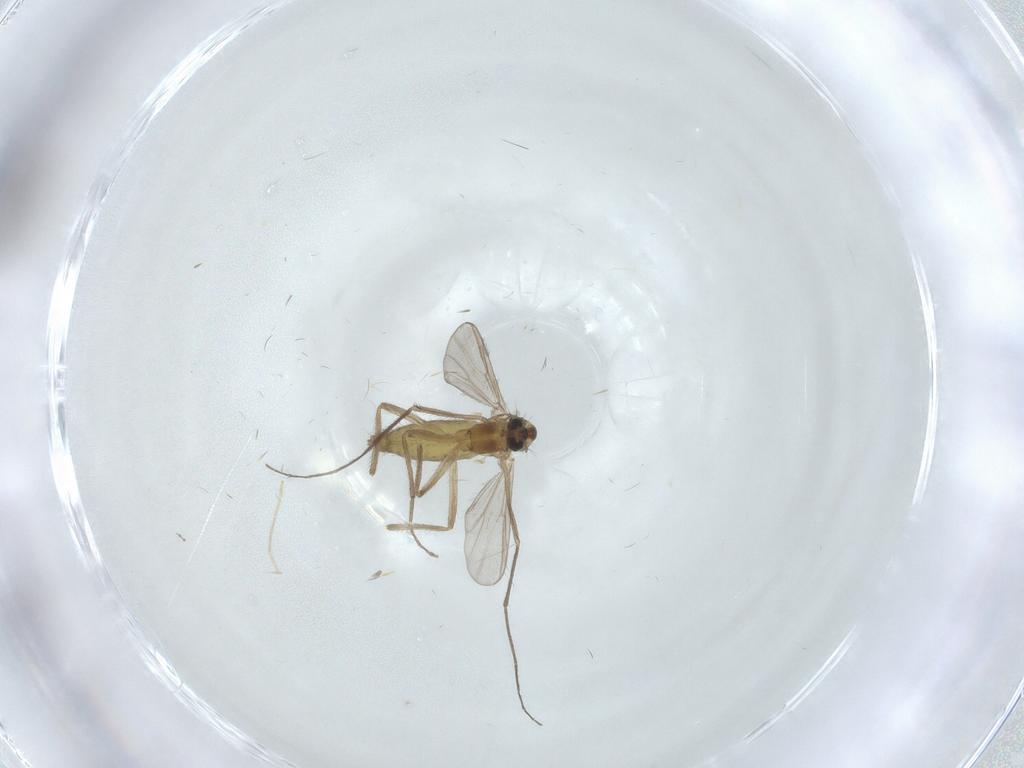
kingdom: Animalia
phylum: Arthropoda
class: Insecta
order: Diptera
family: Chironomidae
